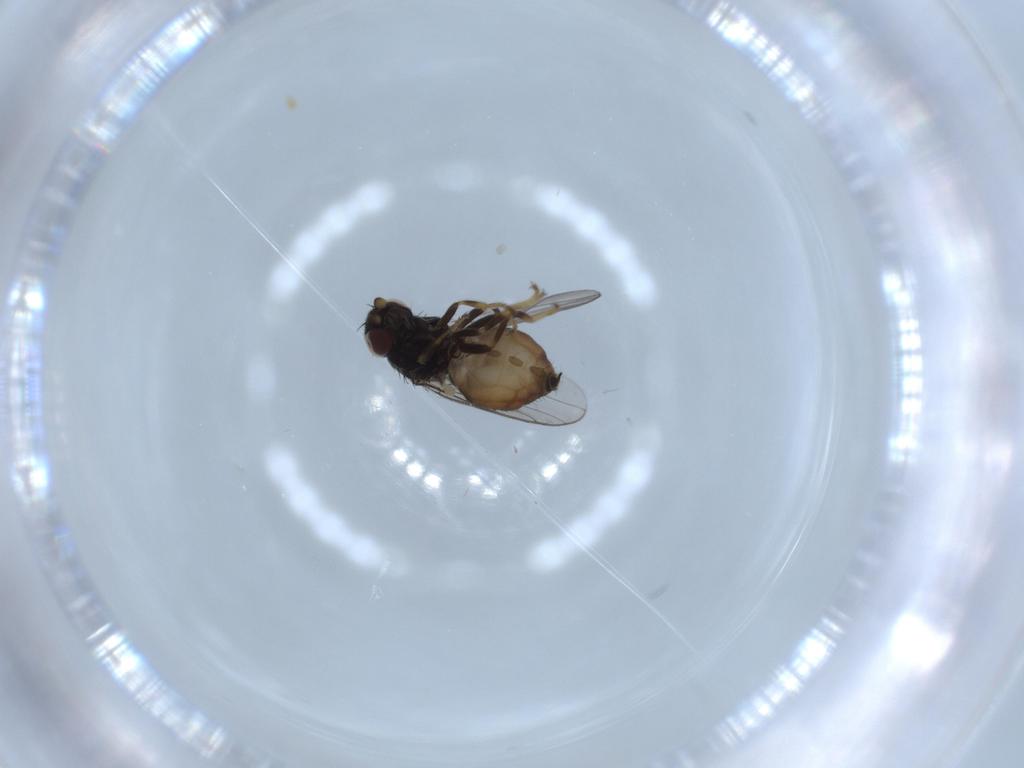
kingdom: Animalia
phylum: Arthropoda
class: Insecta
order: Diptera
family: Chloropidae
